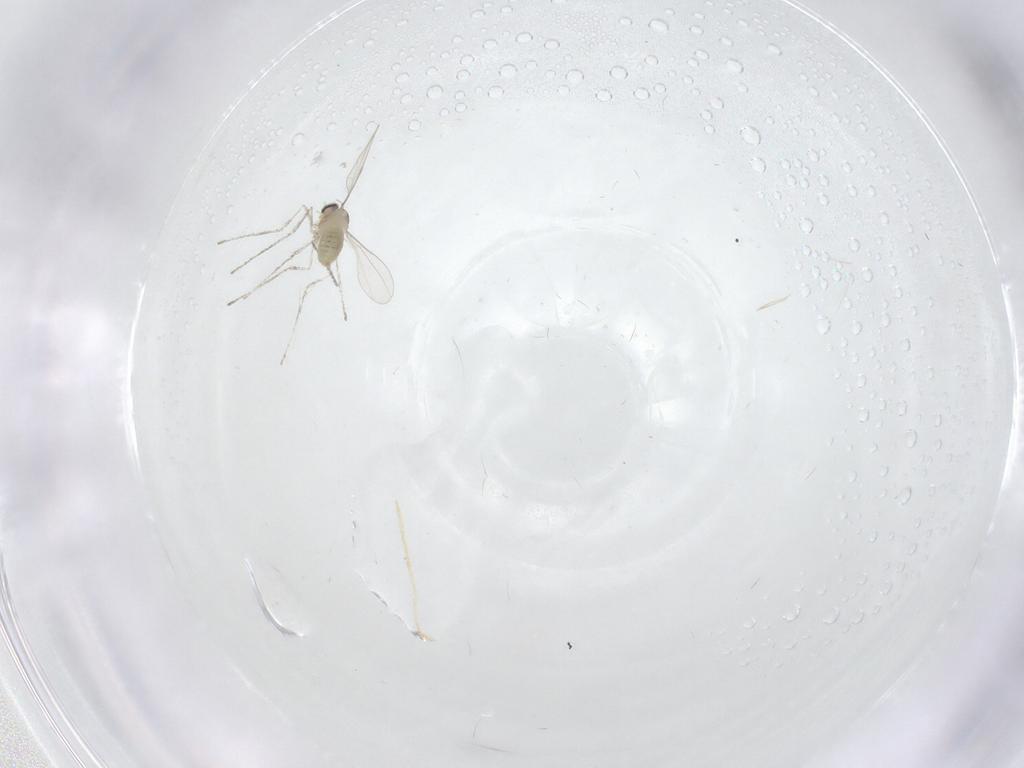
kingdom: Animalia
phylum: Arthropoda
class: Insecta
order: Diptera
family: Cecidomyiidae
